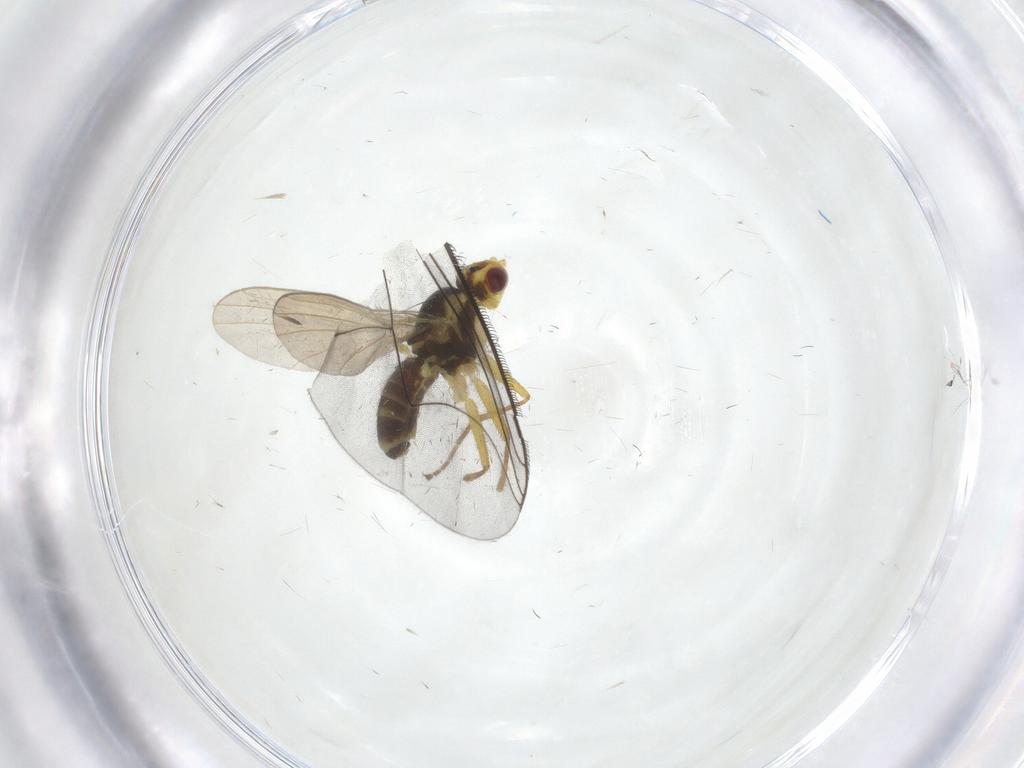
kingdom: Animalia
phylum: Arthropoda
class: Insecta
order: Diptera
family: Agromyzidae
